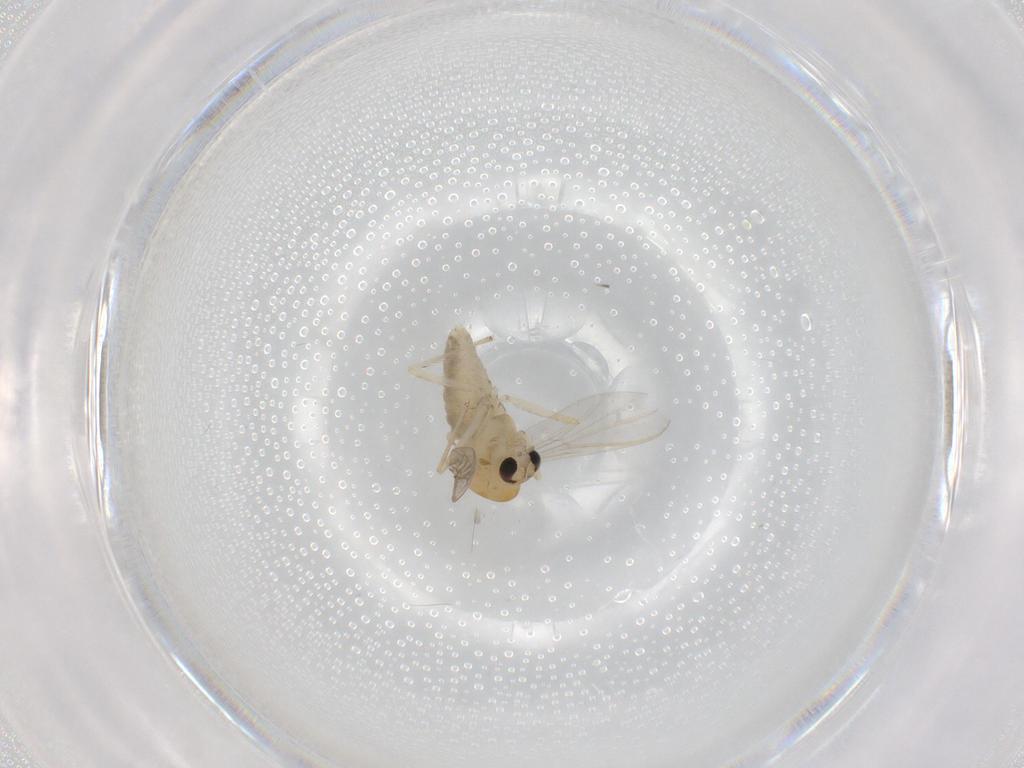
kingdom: Animalia
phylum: Arthropoda
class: Insecta
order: Diptera
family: Chironomidae
